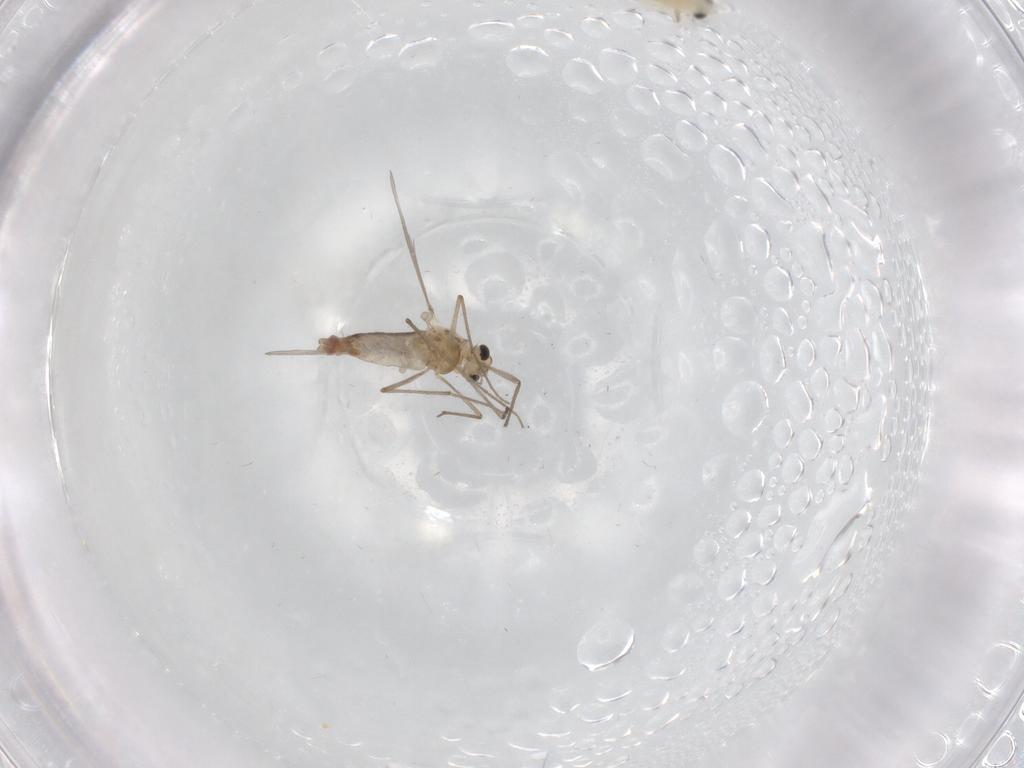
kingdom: Animalia
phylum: Arthropoda
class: Insecta
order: Diptera
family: Chironomidae
